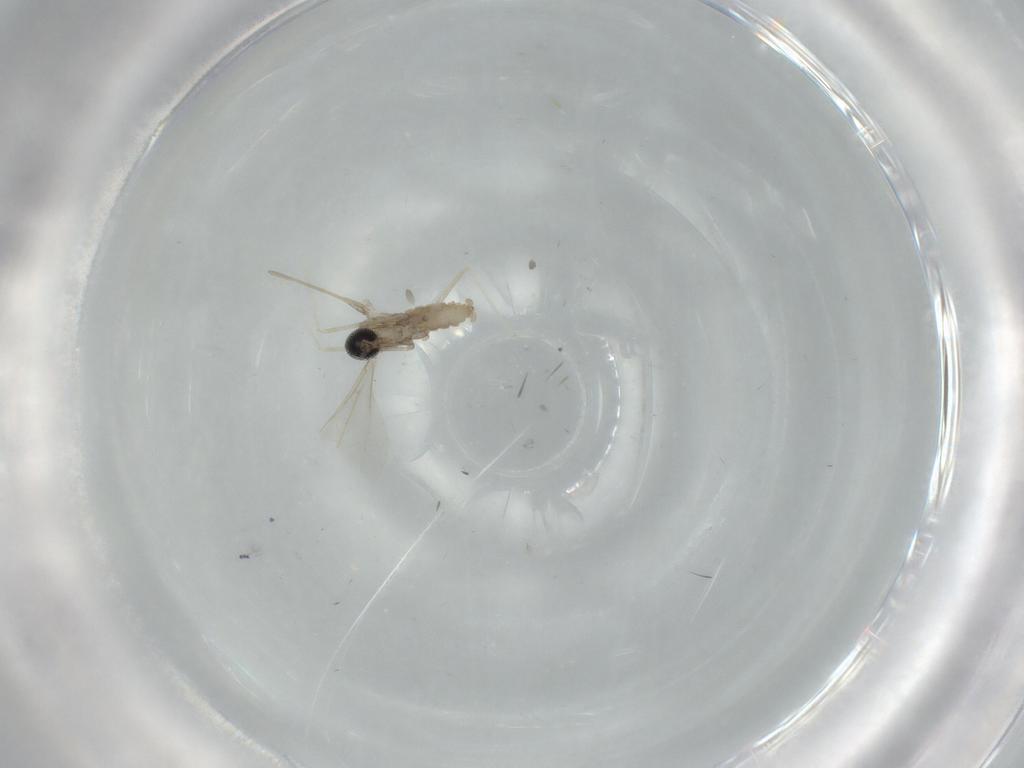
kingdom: Animalia
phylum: Arthropoda
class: Insecta
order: Diptera
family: Cecidomyiidae
